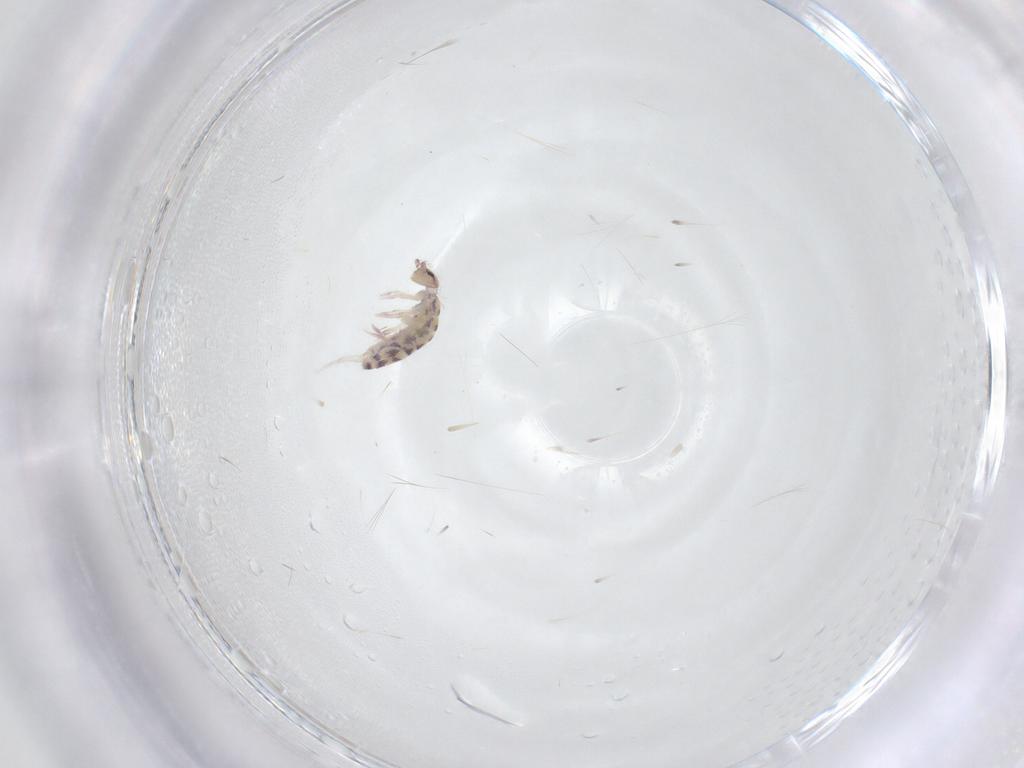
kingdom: Animalia
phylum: Arthropoda
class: Collembola
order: Entomobryomorpha
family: Entomobryidae
